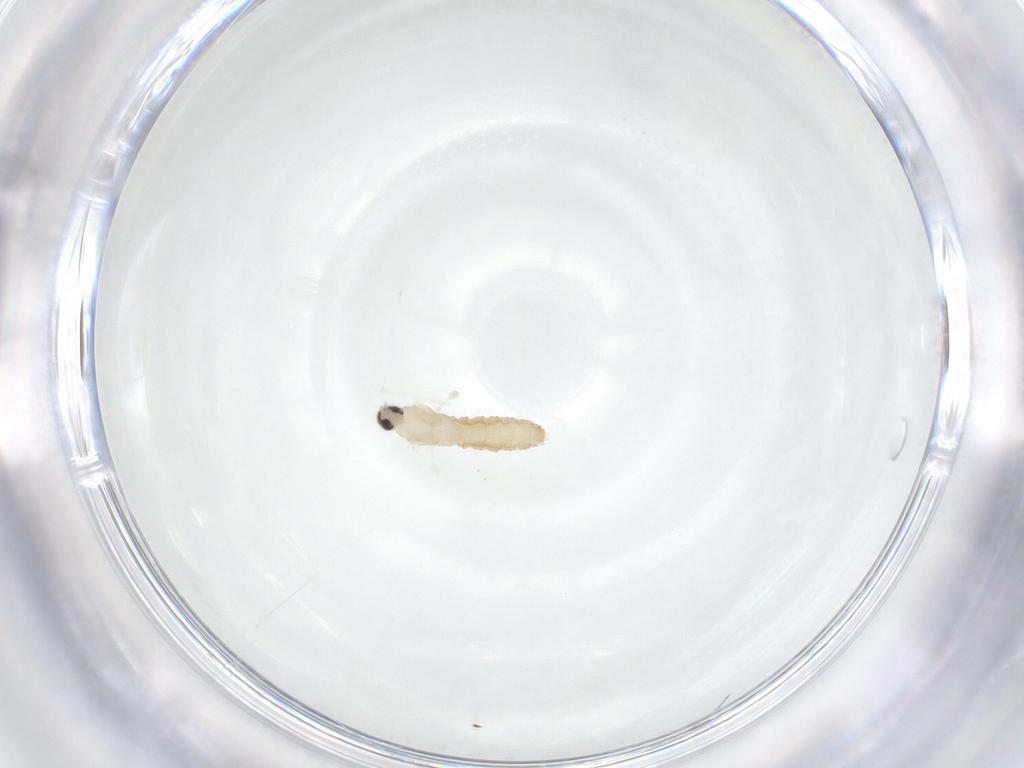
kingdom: Animalia
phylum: Arthropoda
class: Insecta
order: Diptera
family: Cecidomyiidae
